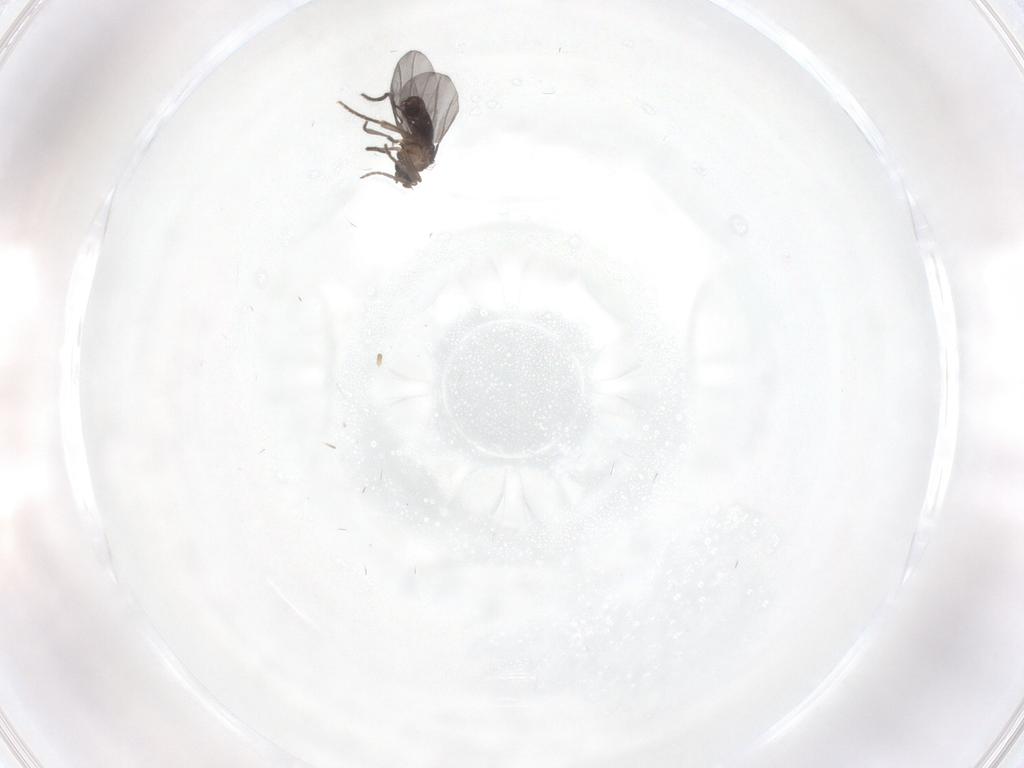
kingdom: Animalia
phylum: Arthropoda
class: Insecta
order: Diptera
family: Phoridae
